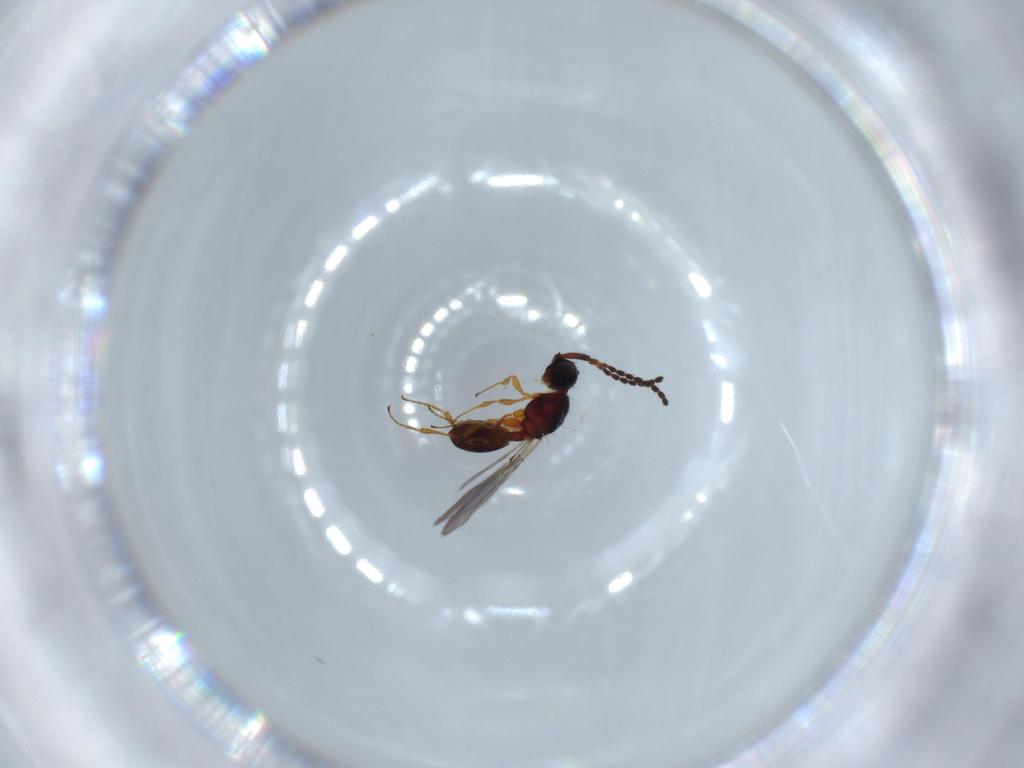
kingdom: Animalia
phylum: Arthropoda
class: Insecta
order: Hymenoptera
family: Diapriidae
